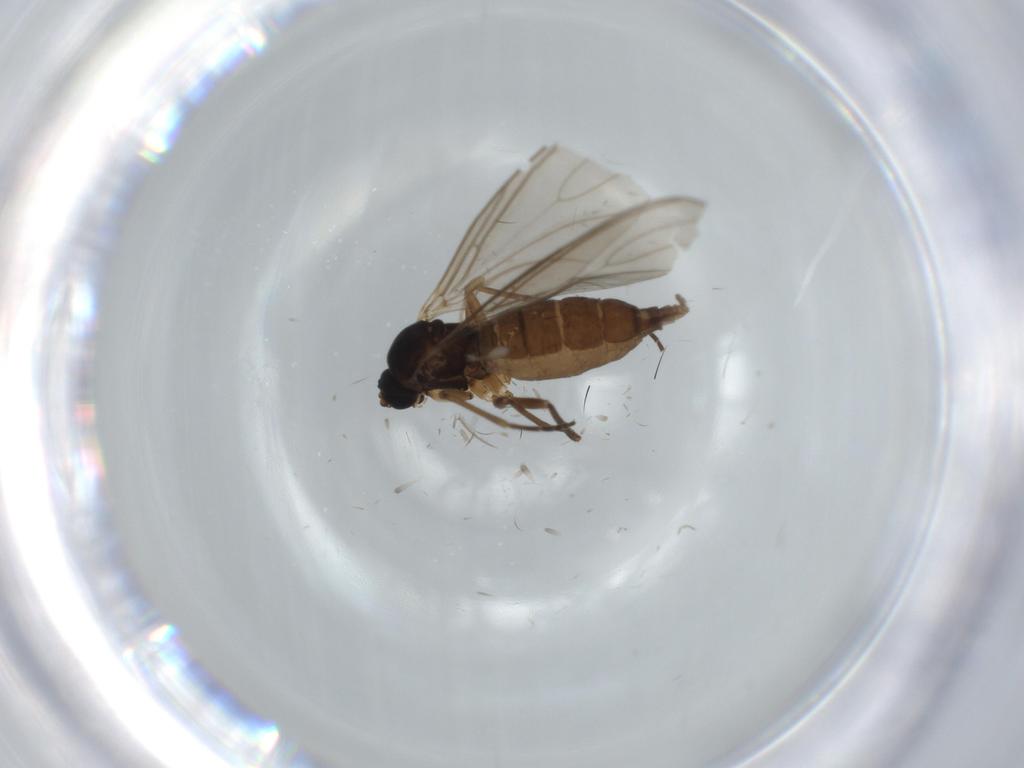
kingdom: Animalia
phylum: Arthropoda
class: Insecta
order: Diptera
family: Sciaridae
